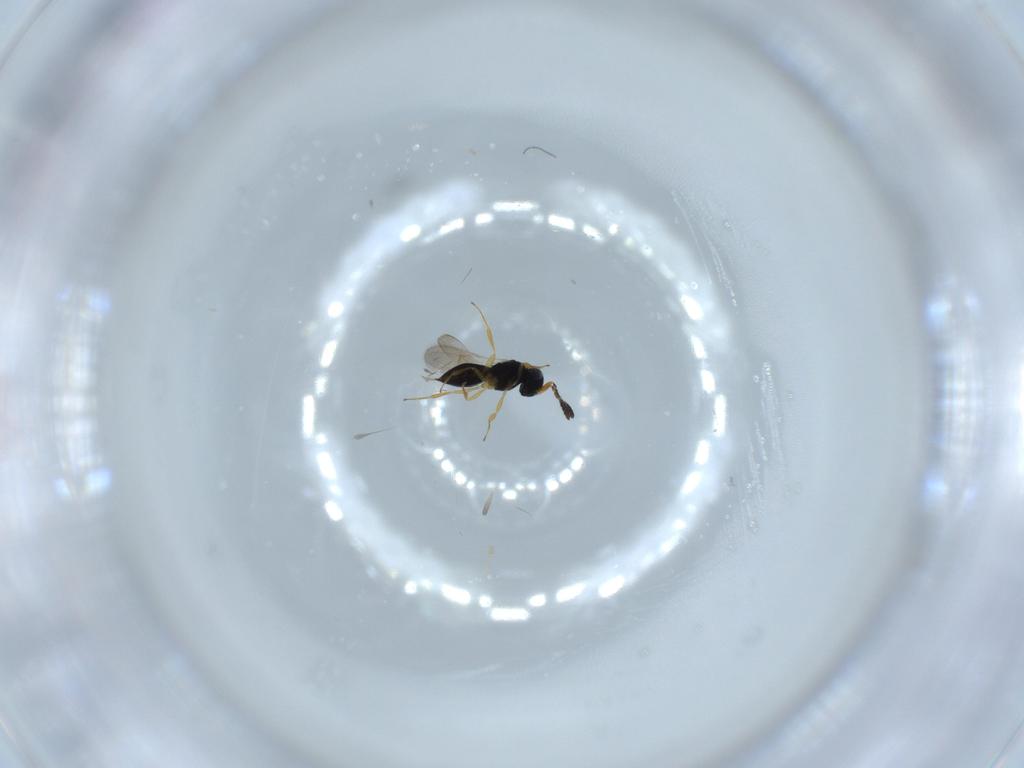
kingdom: Animalia
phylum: Arthropoda
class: Insecta
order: Hymenoptera
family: Scelionidae
